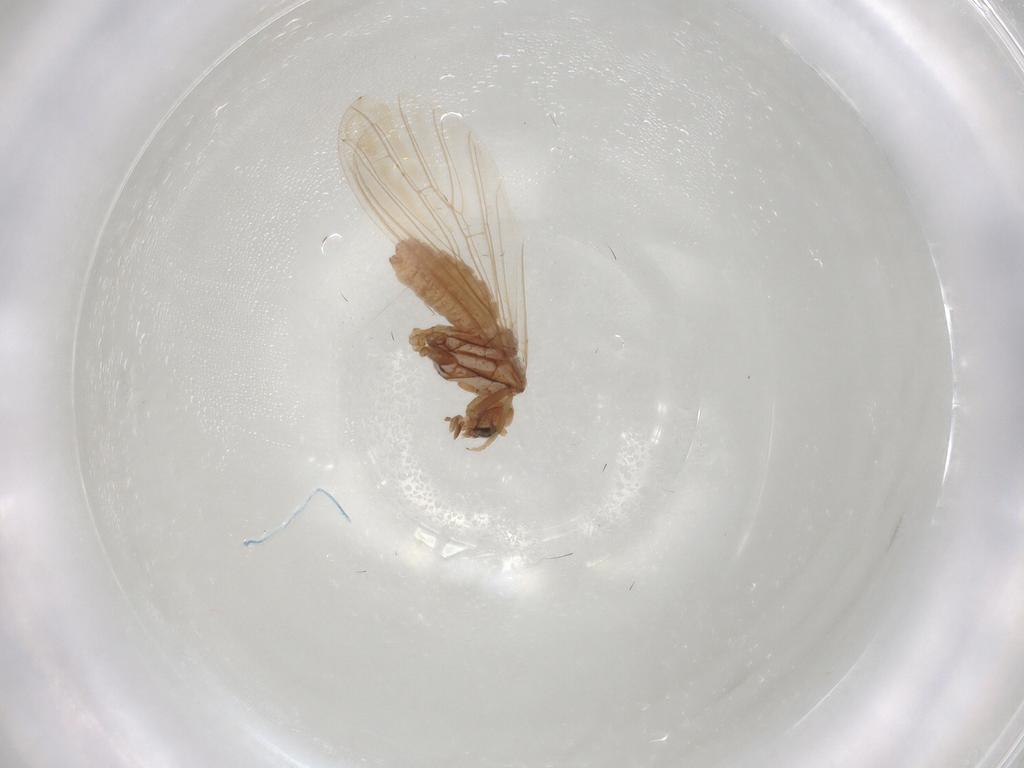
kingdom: Animalia
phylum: Arthropoda
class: Insecta
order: Neuroptera
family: Coniopterygidae
